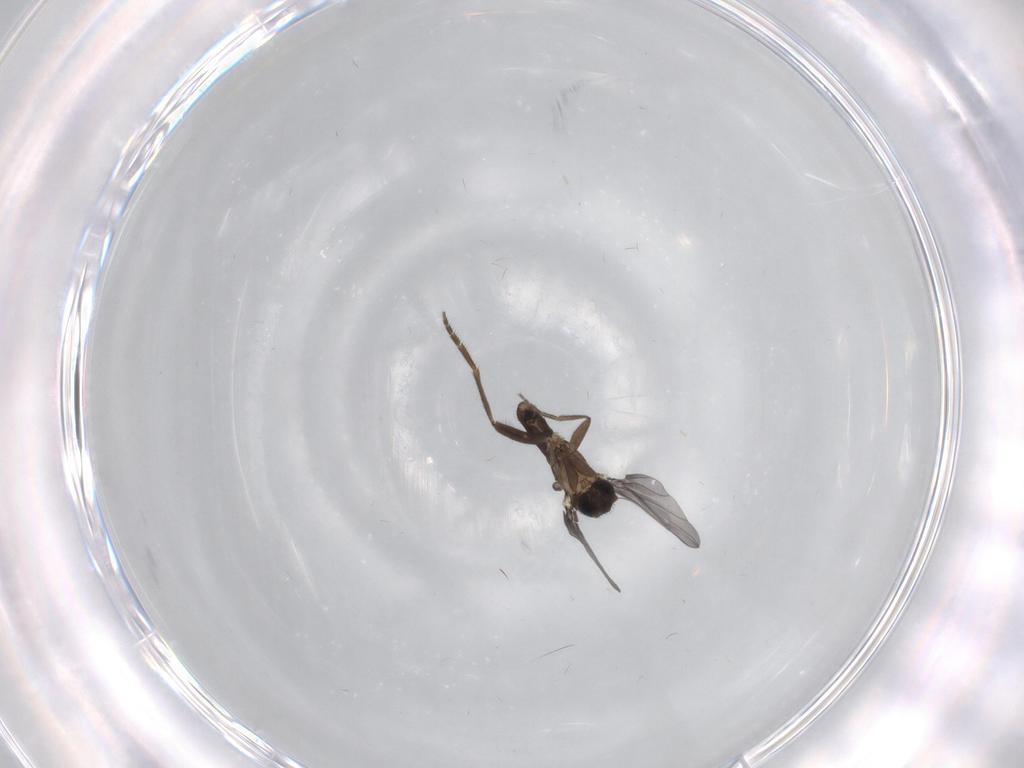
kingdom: Animalia
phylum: Arthropoda
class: Insecta
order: Diptera
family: Phoridae
